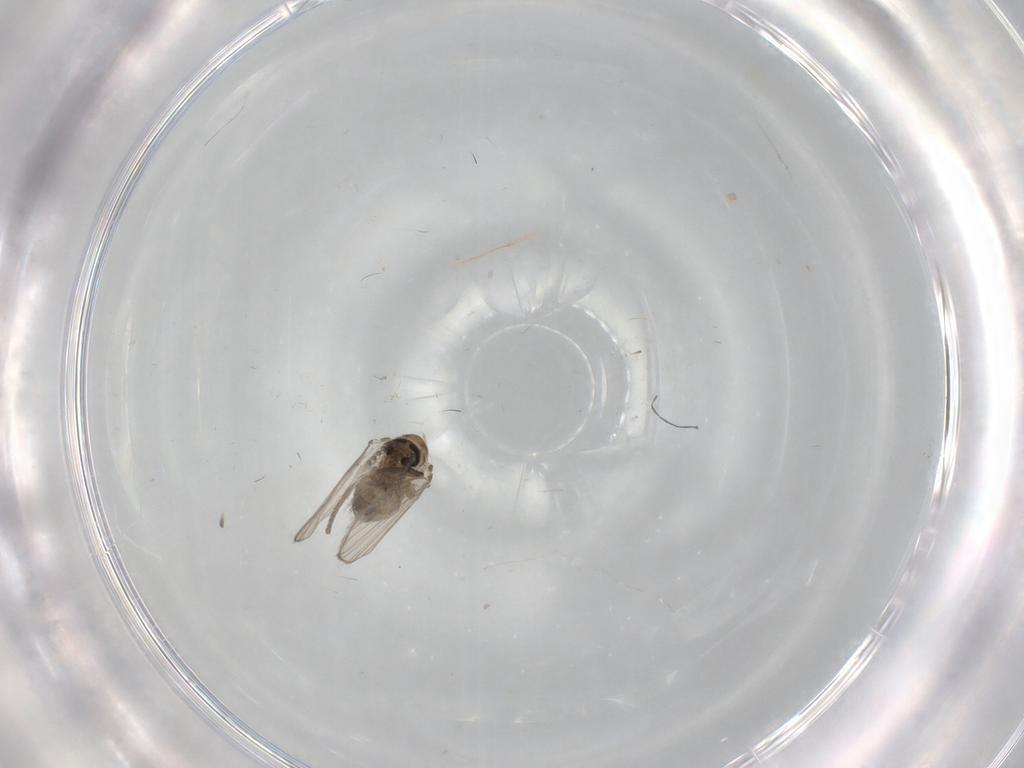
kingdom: Animalia
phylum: Arthropoda
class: Insecta
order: Diptera
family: Psychodidae
